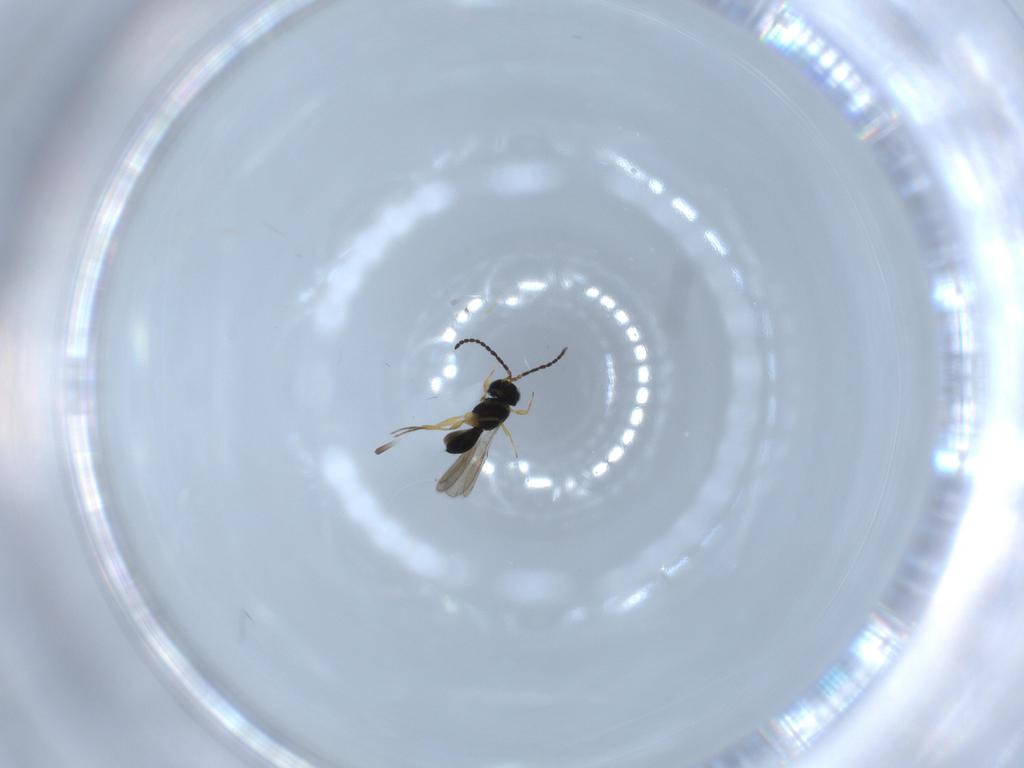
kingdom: Animalia
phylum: Arthropoda
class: Insecta
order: Hymenoptera
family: Scelionidae
